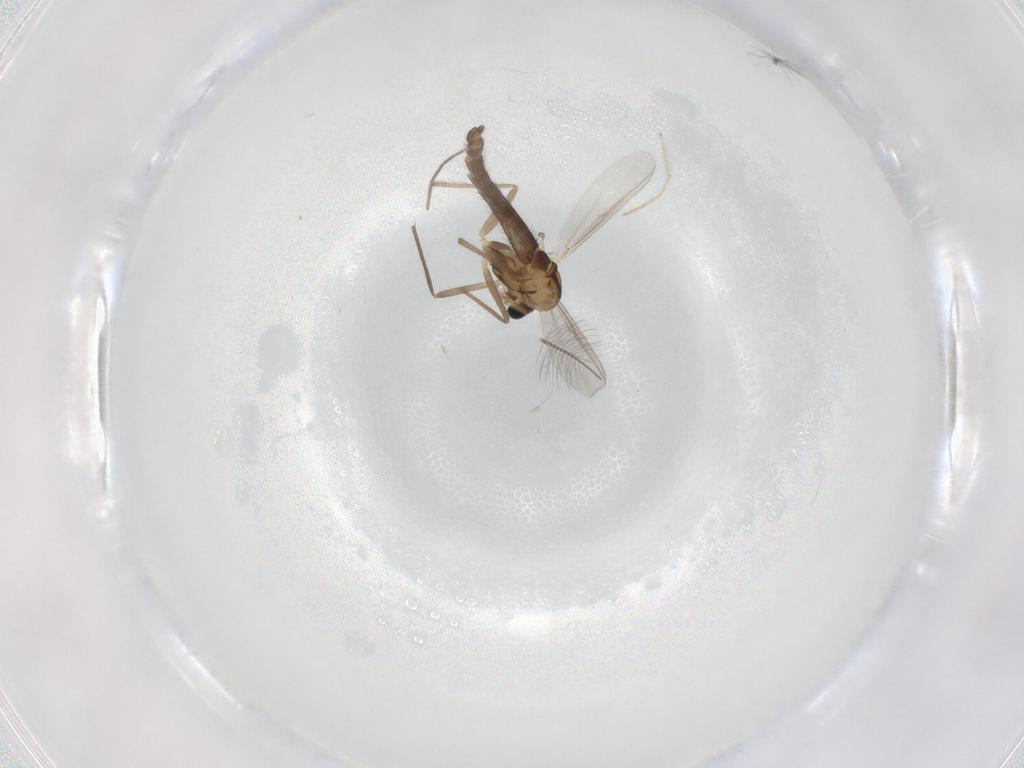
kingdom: Animalia
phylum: Arthropoda
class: Insecta
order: Diptera
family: Chironomidae
